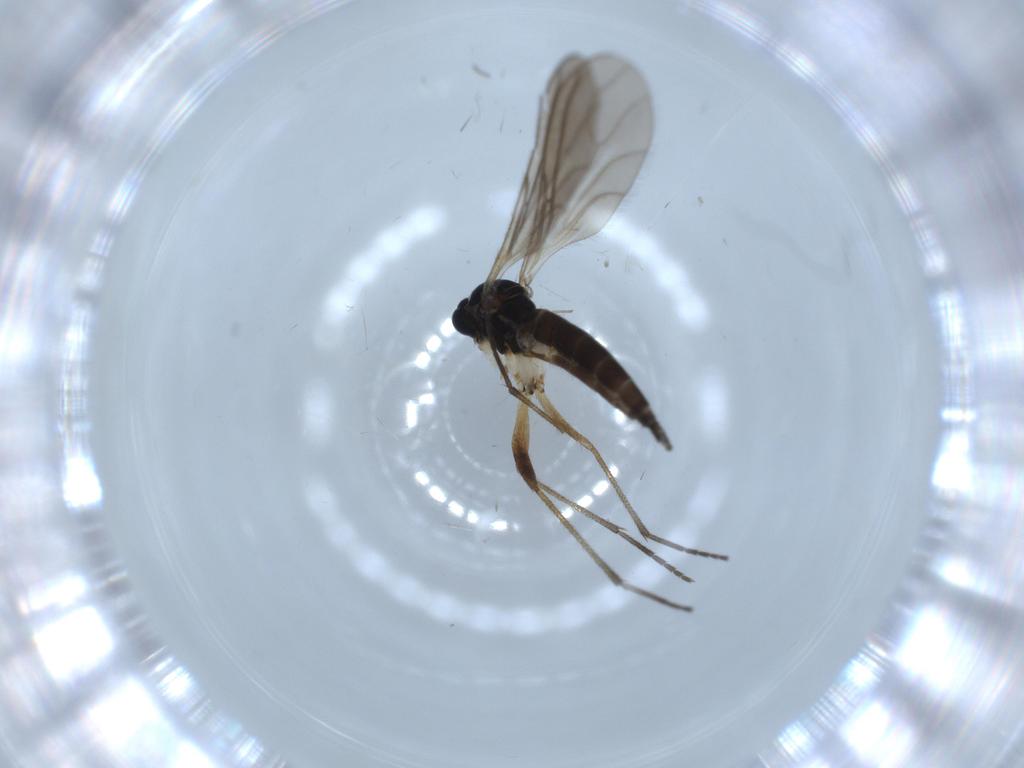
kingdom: Animalia
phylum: Arthropoda
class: Insecta
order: Diptera
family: Sciaridae
